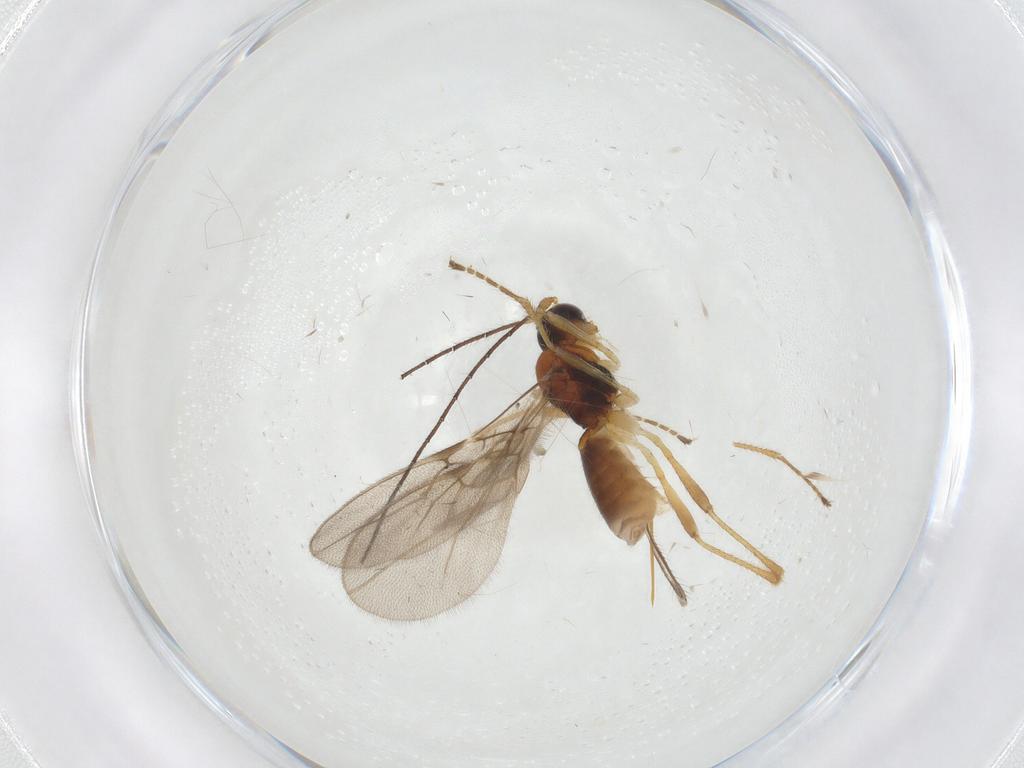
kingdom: Animalia
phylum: Arthropoda
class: Insecta
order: Hymenoptera
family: Braconidae
